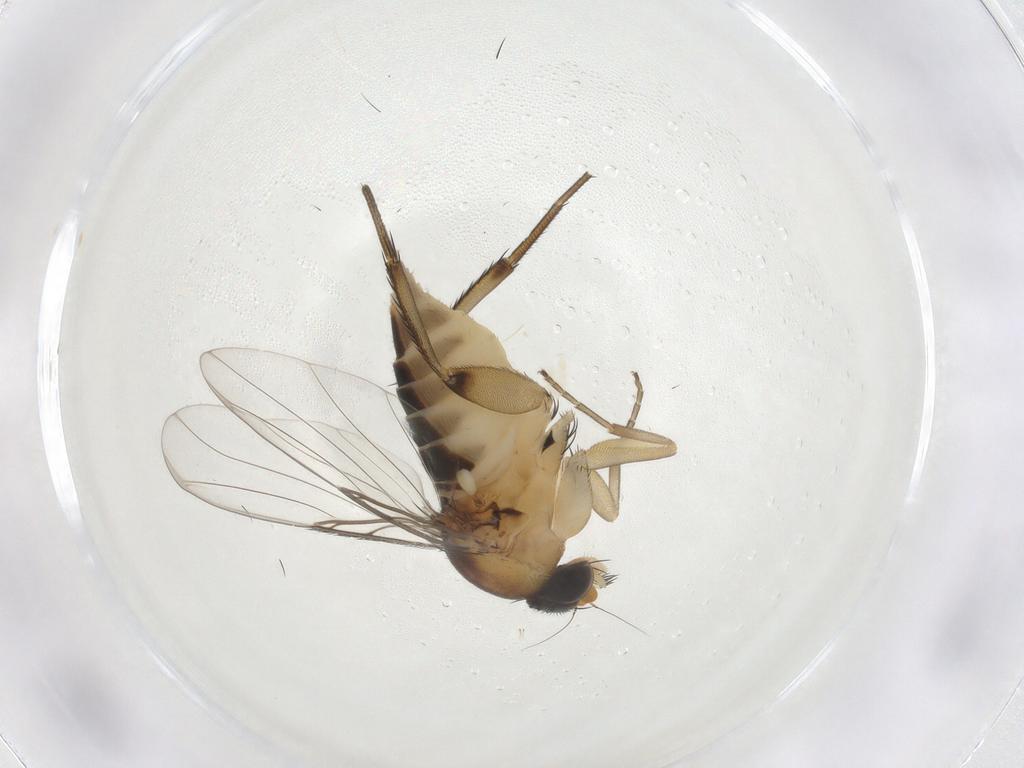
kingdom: Animalia
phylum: Arthropoda
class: Insecta
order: Diptera
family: Phoridae
